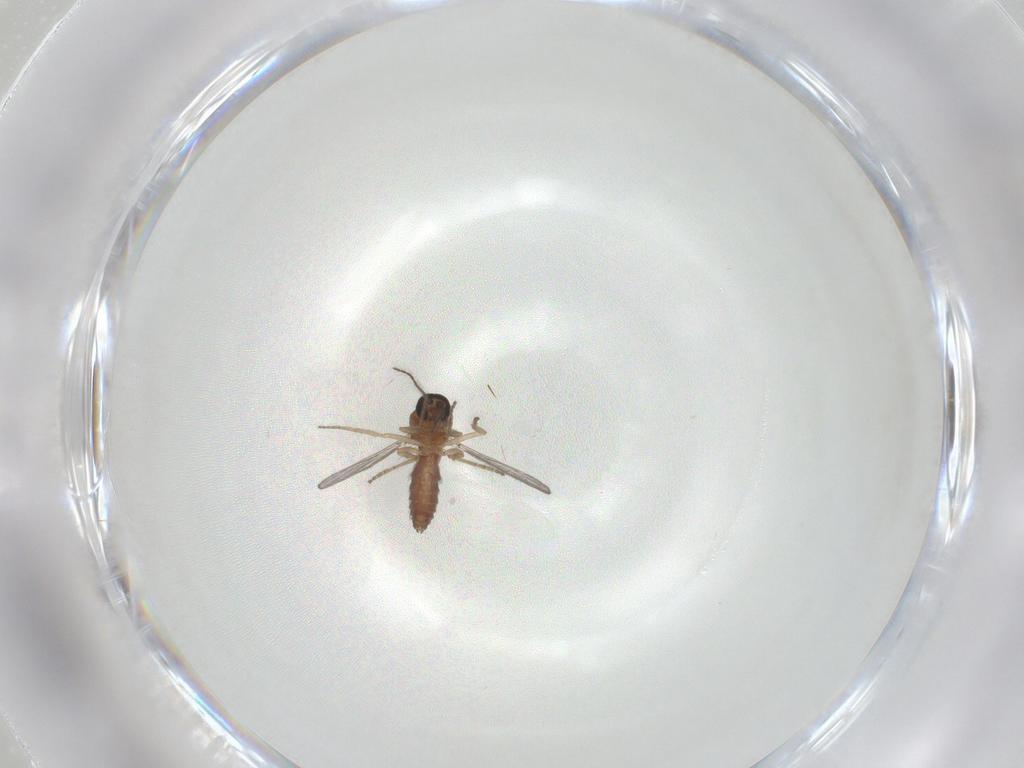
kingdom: Animalia
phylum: Arthropoda
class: Insecta
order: Diptera
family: Ceratopogonidae
